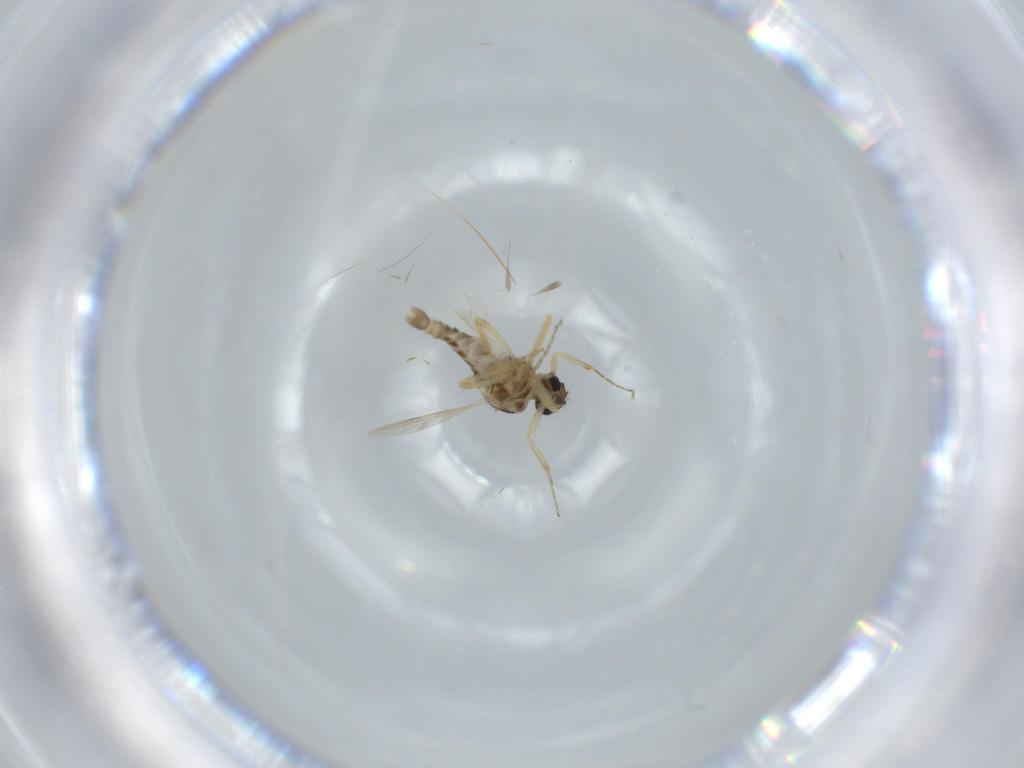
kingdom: Animalia
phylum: Arthropoda
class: Insecta
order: Diptera
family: Ceratopogonidae
